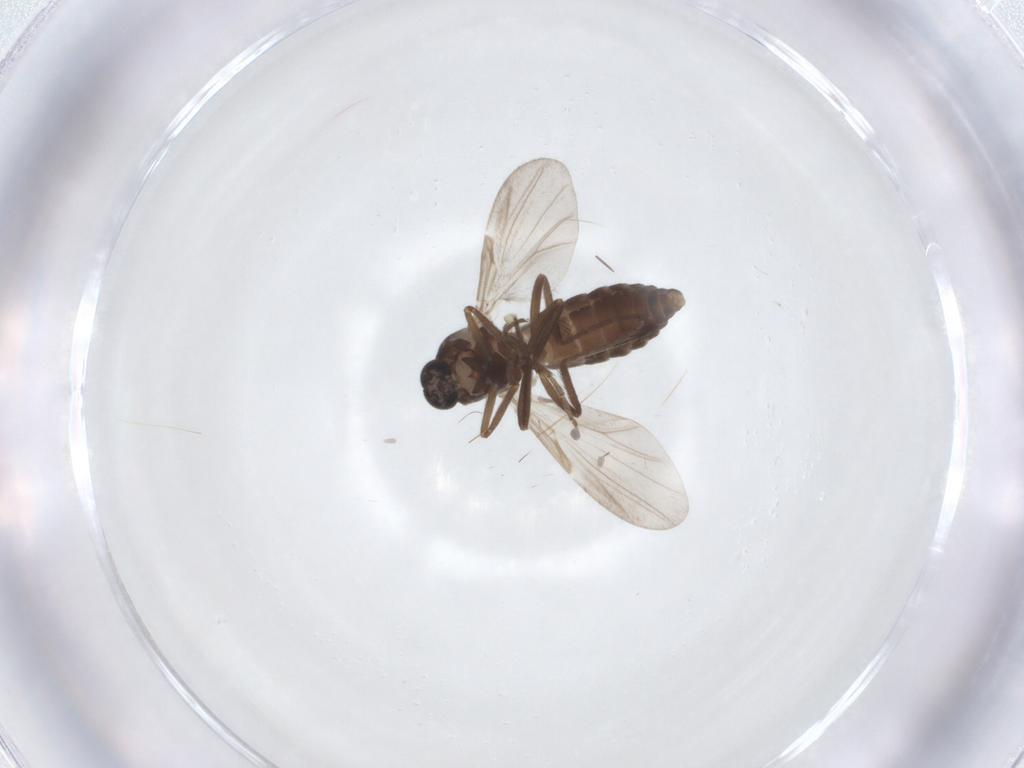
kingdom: Animalia
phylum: Arthropoda
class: Insecta
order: Diptera
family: Ceratopogonidae
